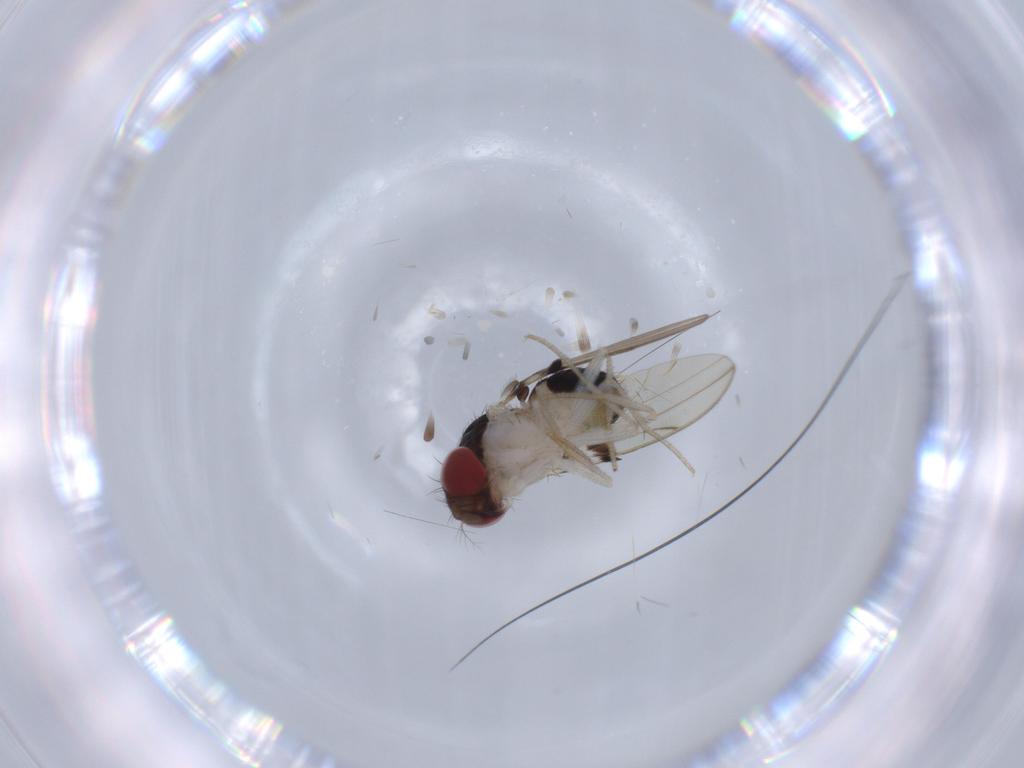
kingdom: Animalia
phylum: Arthropoda
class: Insecta
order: Diptera
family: Drosophilidae
